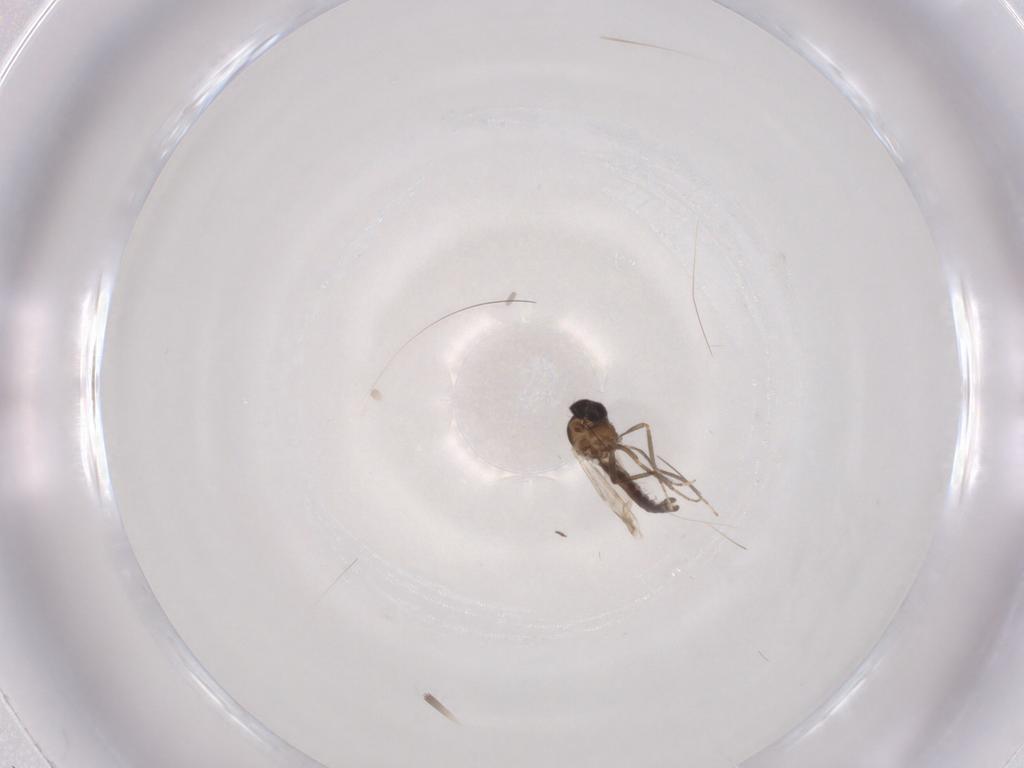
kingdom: Animalia
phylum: Arthropoda
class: Insecta
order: Diptera
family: Ceratopogonidae
